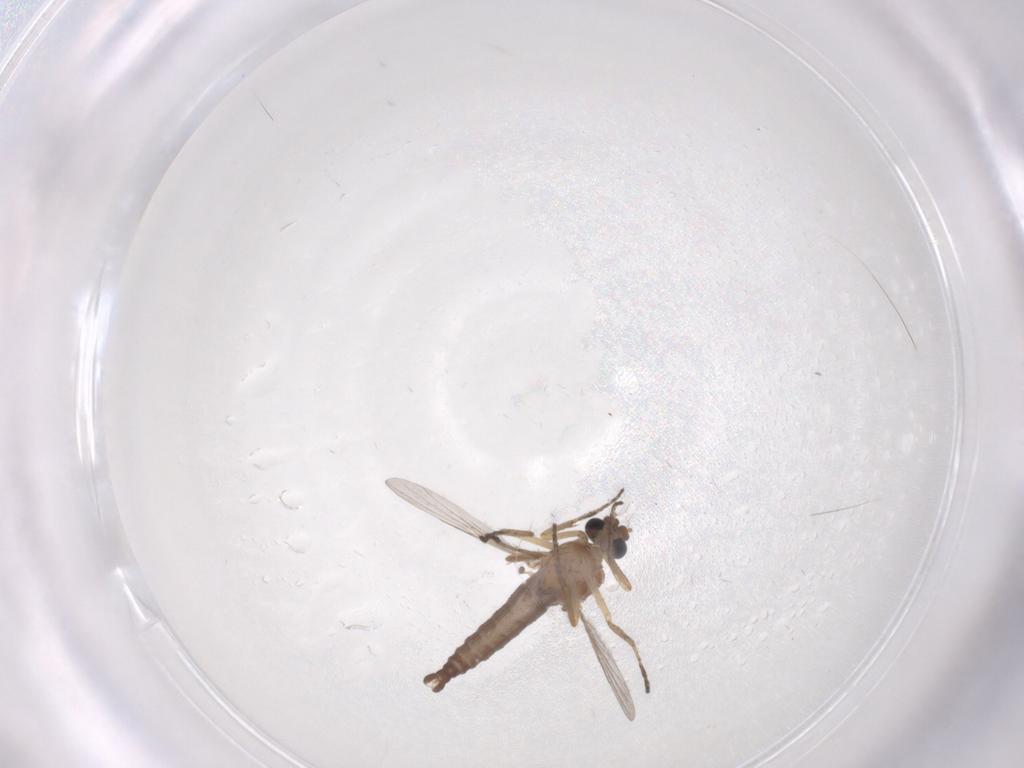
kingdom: Animalia
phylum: Arthropoda
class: Insecta
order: Diptera
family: Ceratopogonidae
